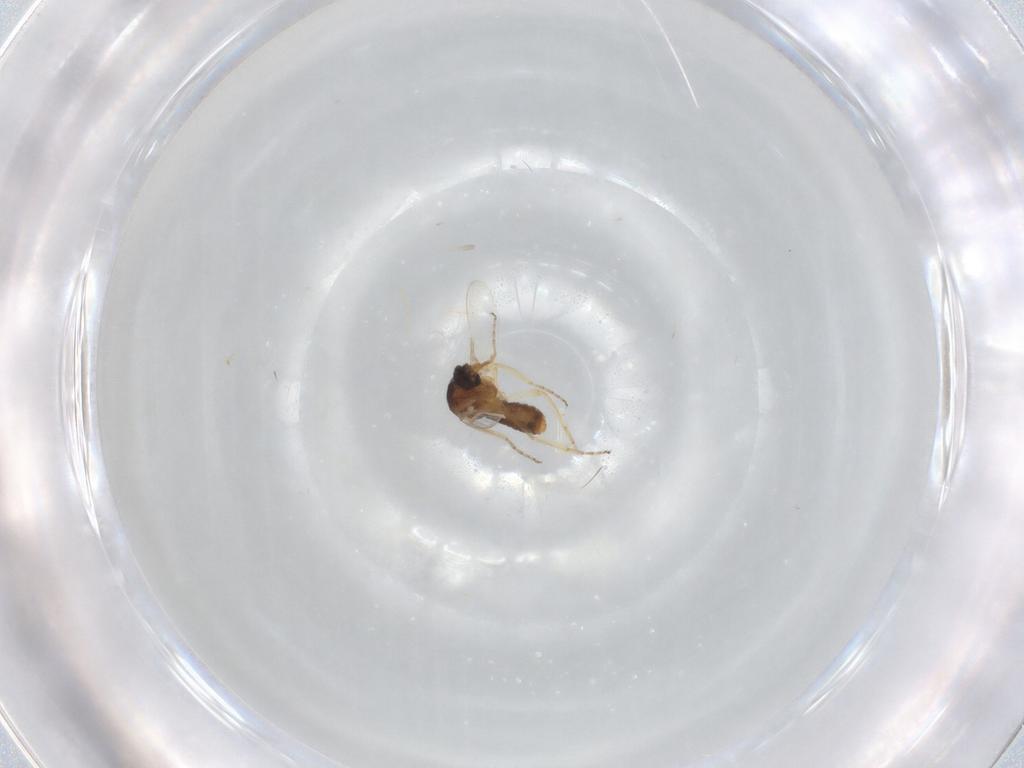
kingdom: Animalia
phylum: Arthropoda
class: Insecta
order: Diptera
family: Ceratopogonidae
